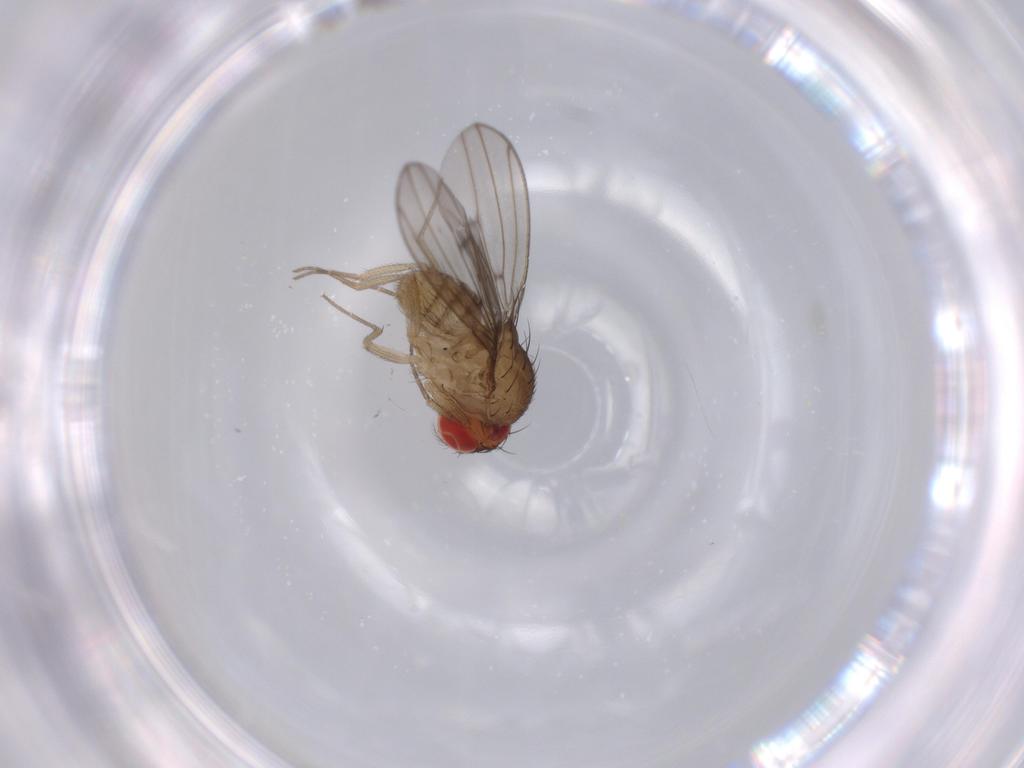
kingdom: Animalia
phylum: Arthropoda
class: Insecta
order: Diptera
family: Drosophilidae
